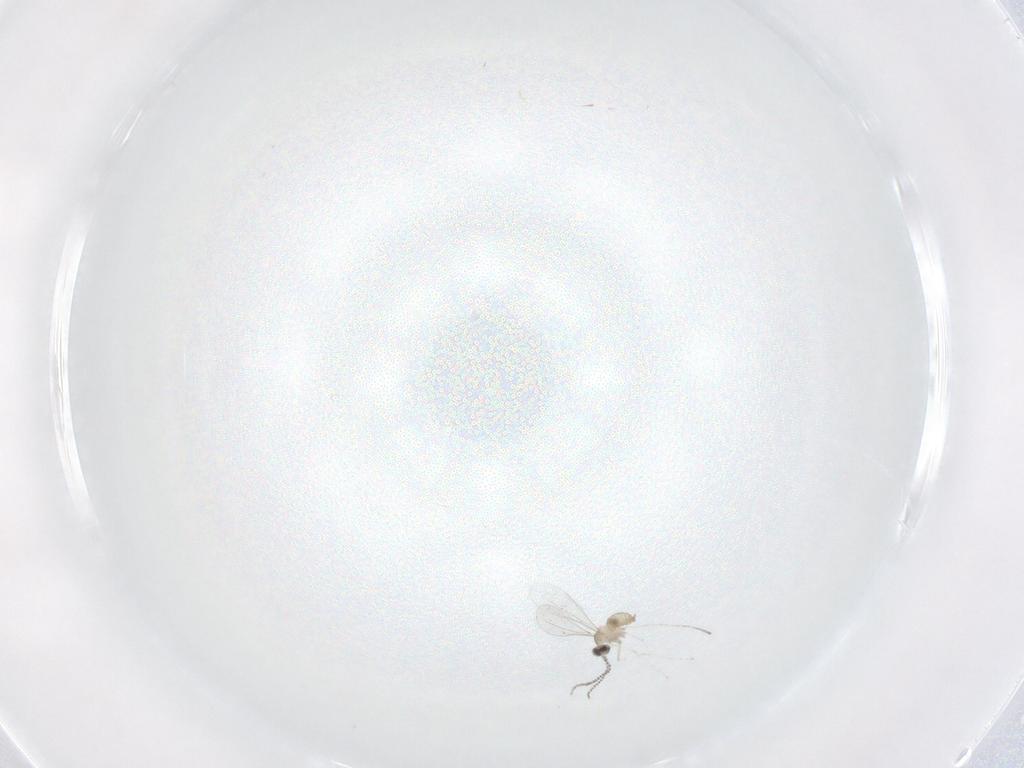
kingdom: Animalia
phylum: Arthropoda
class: Insecta
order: Diptera
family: Cecidomyiidae
